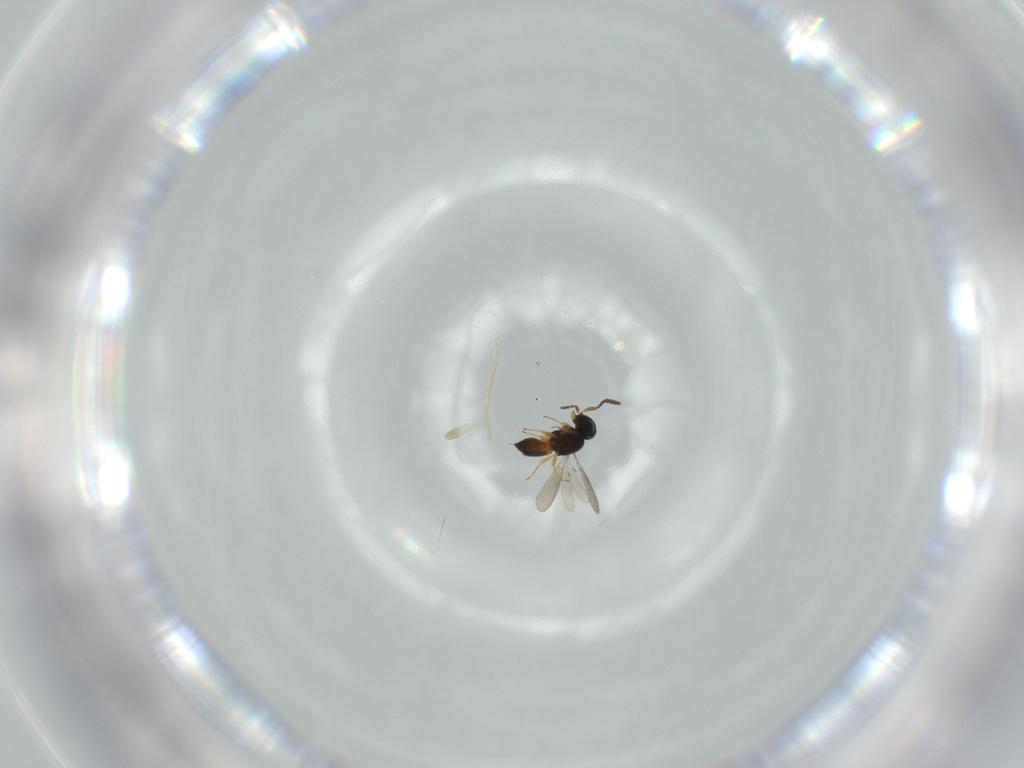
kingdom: Animalia
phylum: Arthropoda
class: Insecta
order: Hymenoptera
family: Scelionidae
